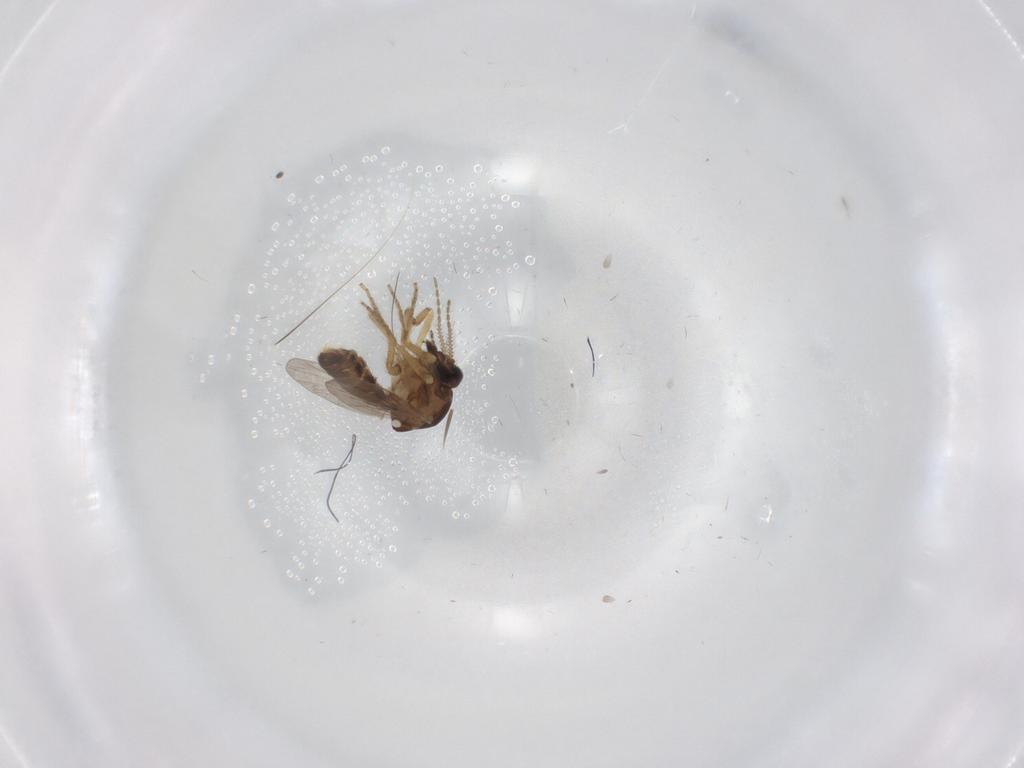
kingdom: Animalia
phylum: Arthropoda
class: Insecta
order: Diptera
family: Ceratopogonidae
